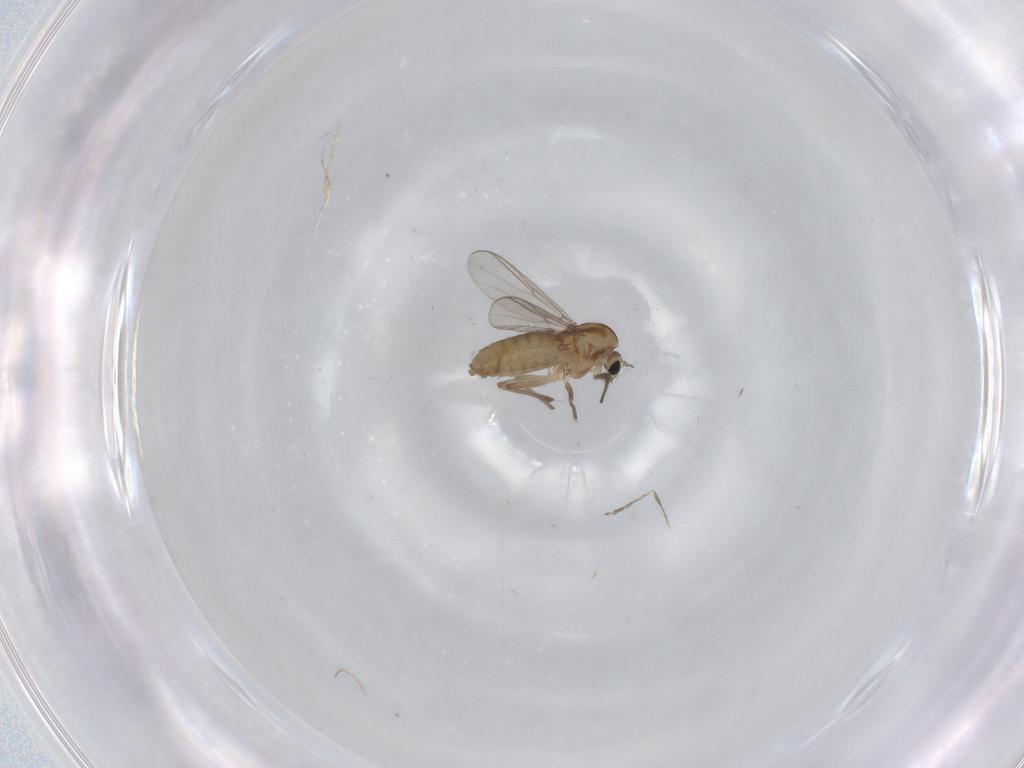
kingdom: Animalia
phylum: Arthropoda
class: Insecta
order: Diptera
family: Chironomidae
